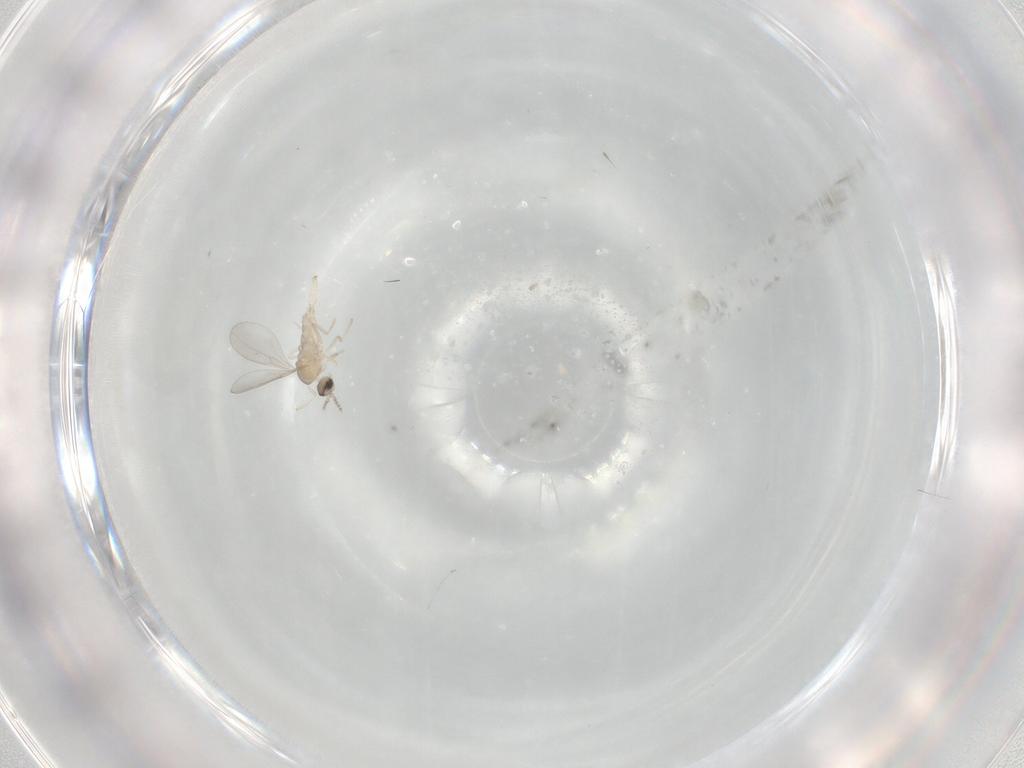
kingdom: Animalia
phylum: Arthropoda
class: Insecta
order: Diptera
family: Cecidomyiidae
